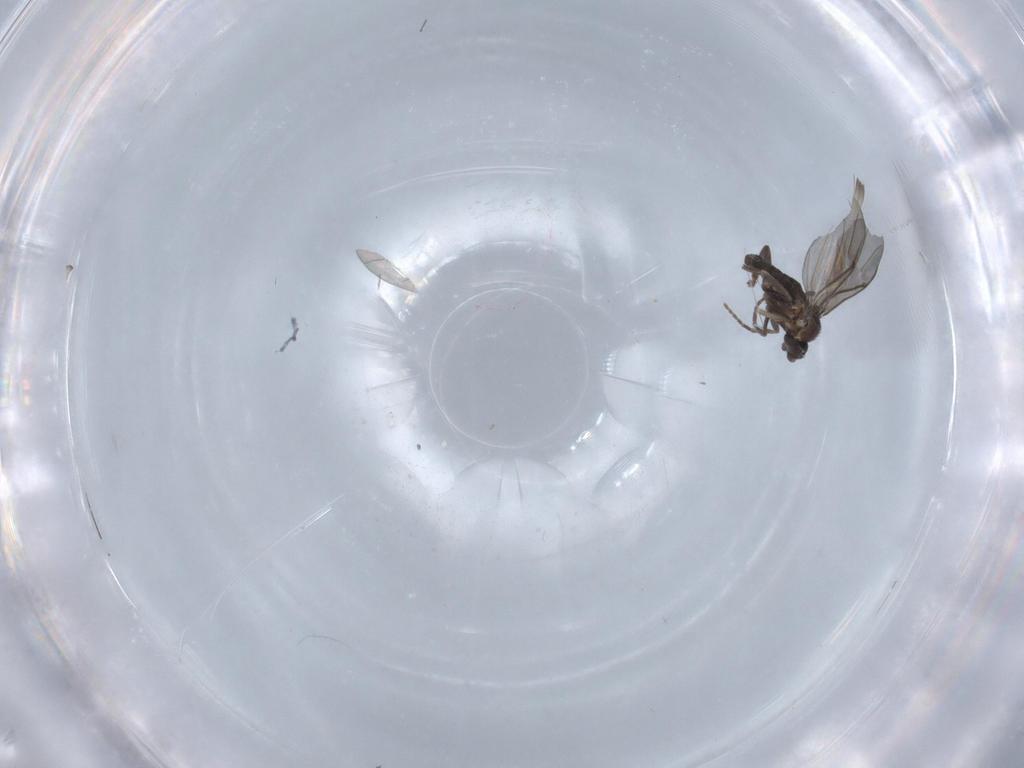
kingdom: Animalia
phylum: Arthropoda
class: Insecta
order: Diptera
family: Phoridae
